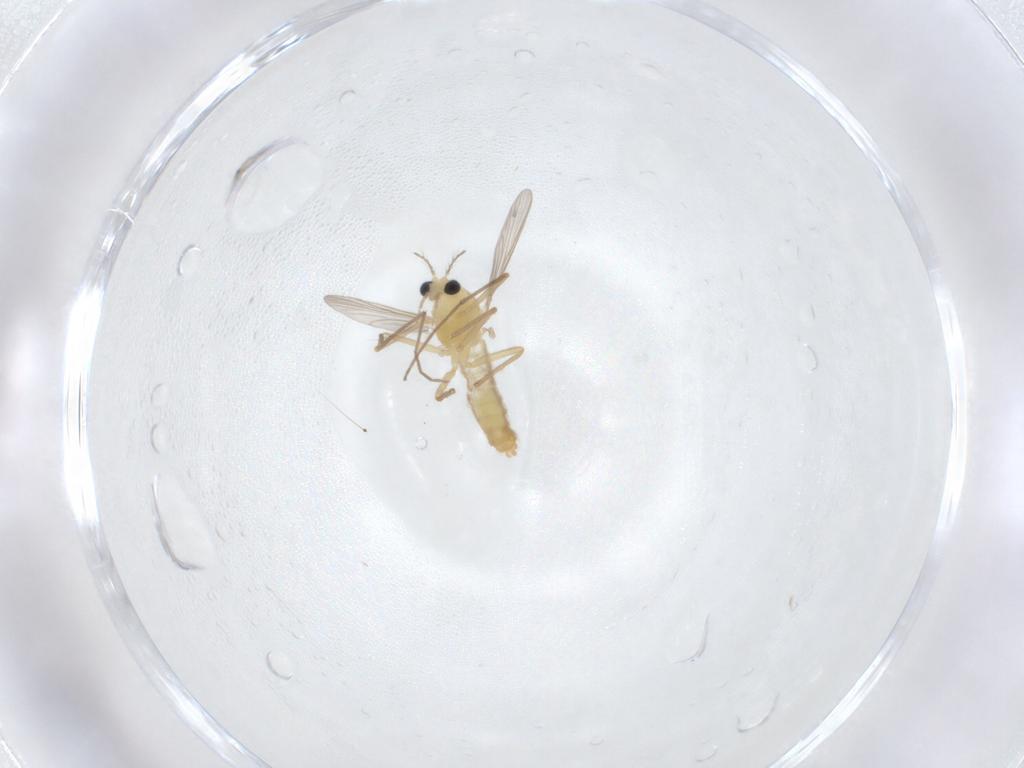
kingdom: Animalia
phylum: Arthropoda
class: Insecta
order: Diptera
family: Chironomidae
